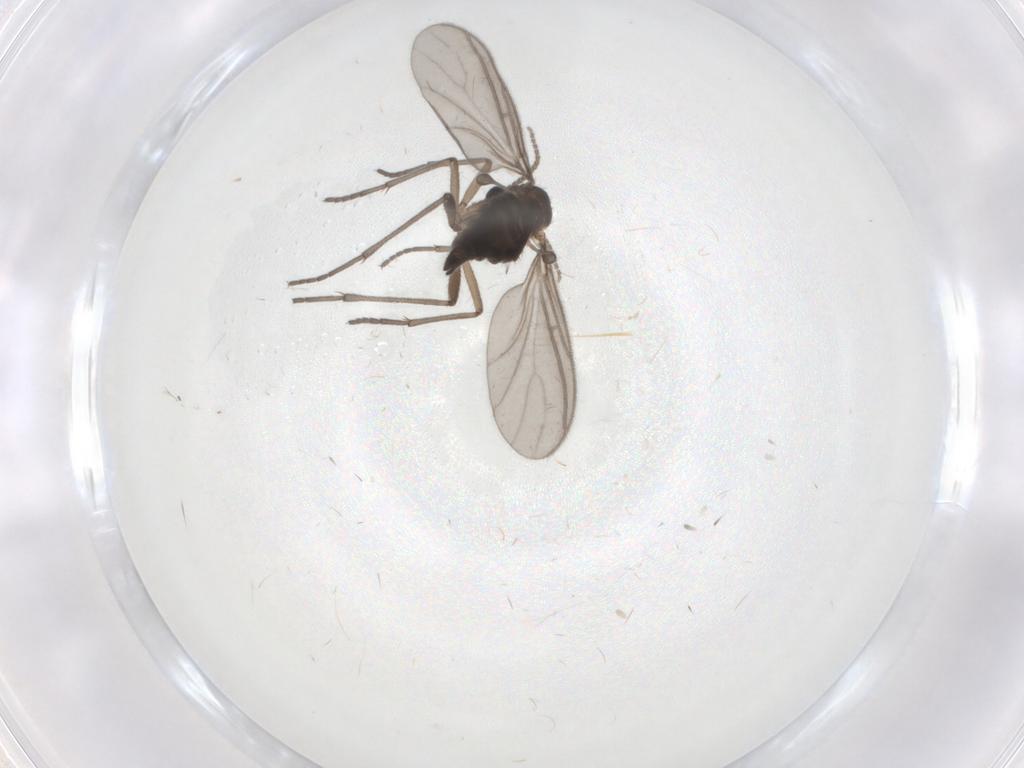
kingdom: Animalia
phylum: Arthropoda
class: Insecta
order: Diptera
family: Sciaridae
